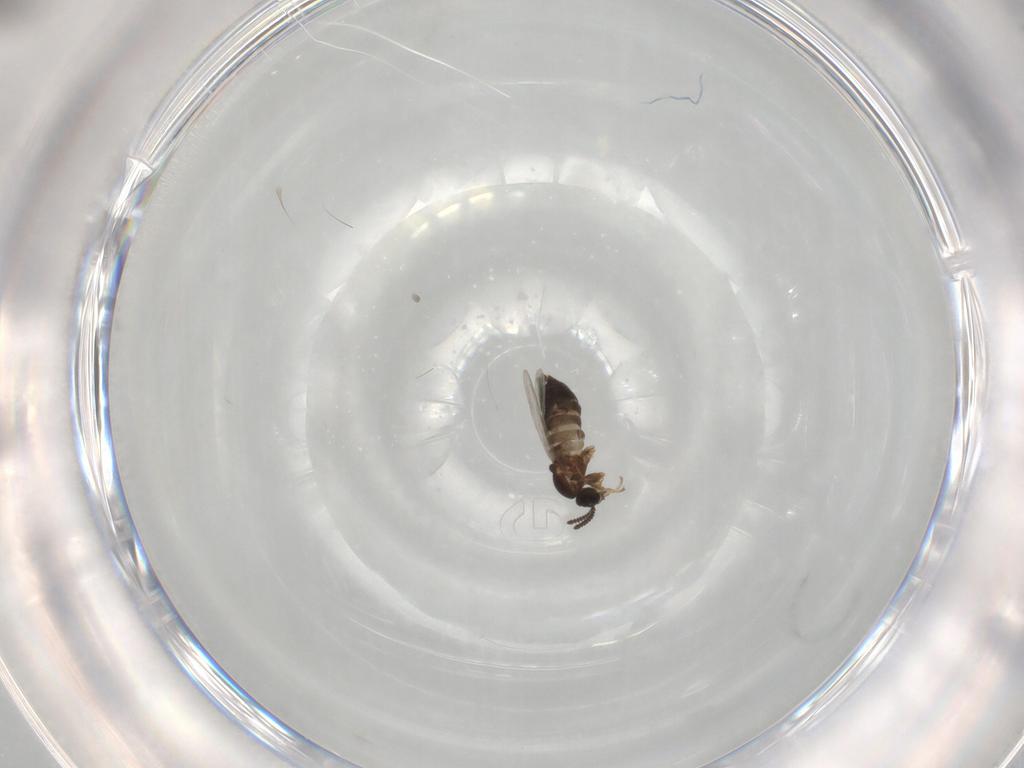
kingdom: Animalia
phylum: Arthropoda
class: Insecta
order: Diptera
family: Scatopsidae
